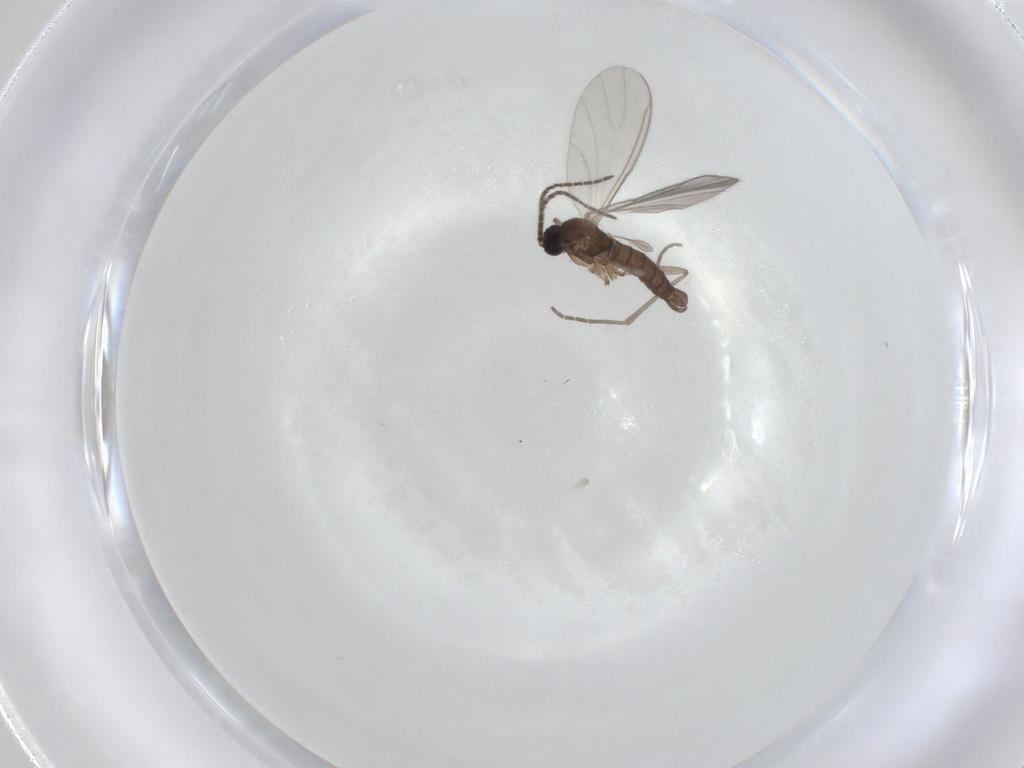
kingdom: Animalia
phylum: Arthropoda
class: Insecta
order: Diptera
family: Sciaridae
